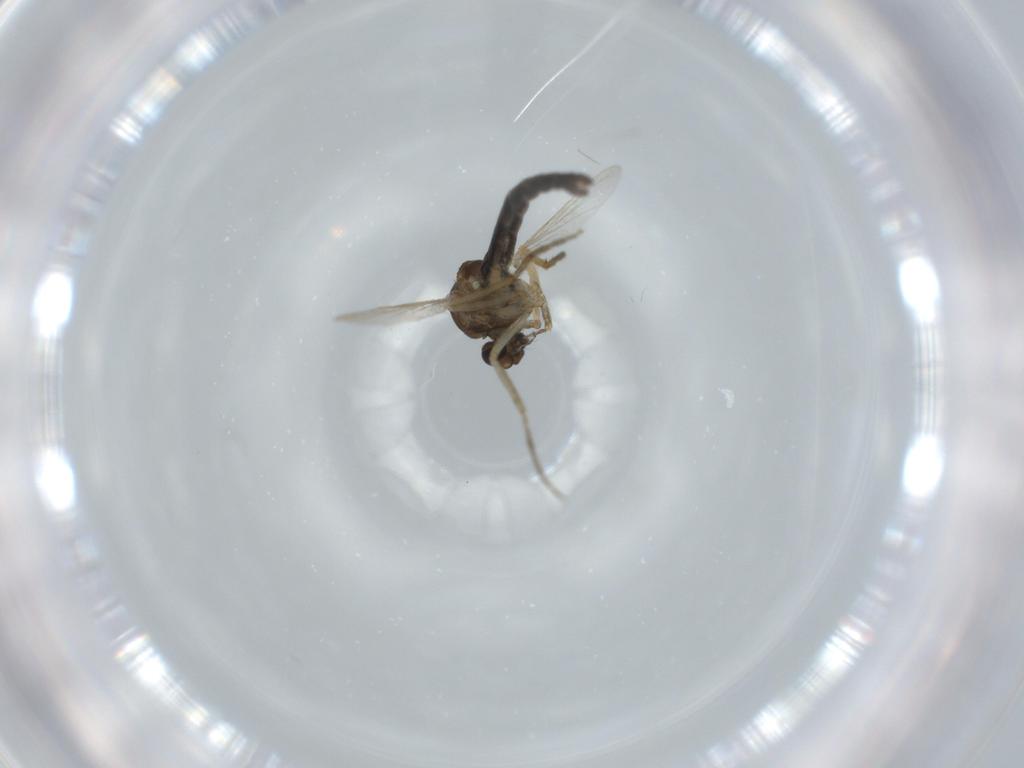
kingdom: Animalia
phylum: Arthropoda
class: Insecta
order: Diptera
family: Ceratopogonidae
